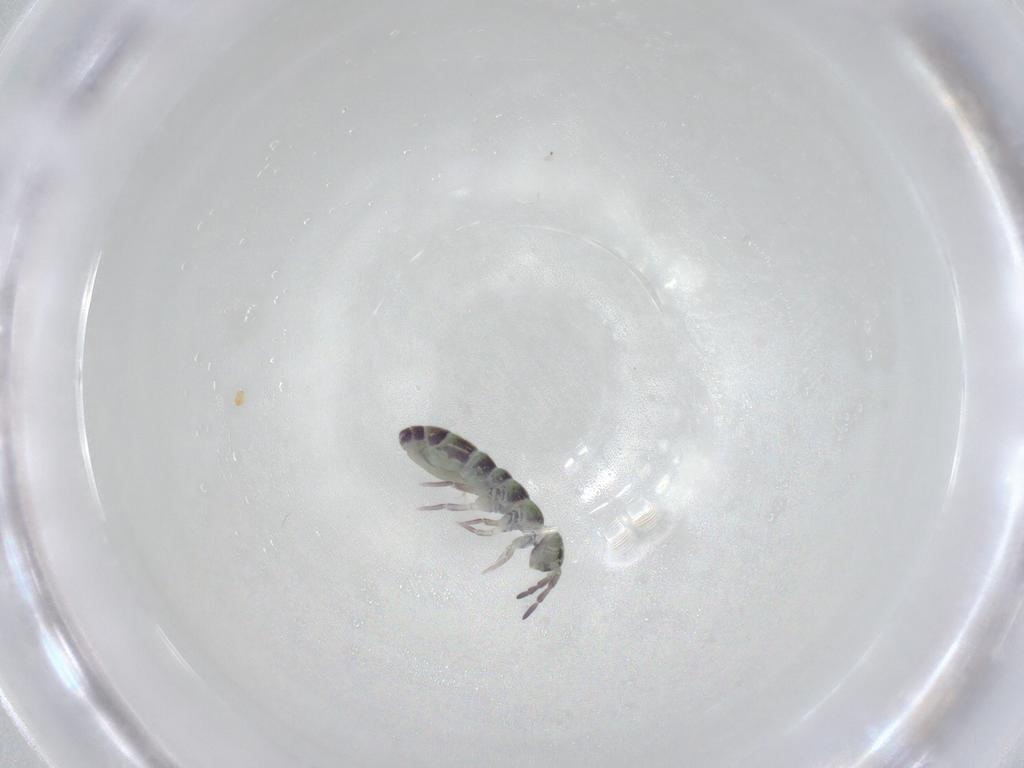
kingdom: Animalia
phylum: Arthropoda
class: Collembola
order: Entomobryomorpha
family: Isotomidae
